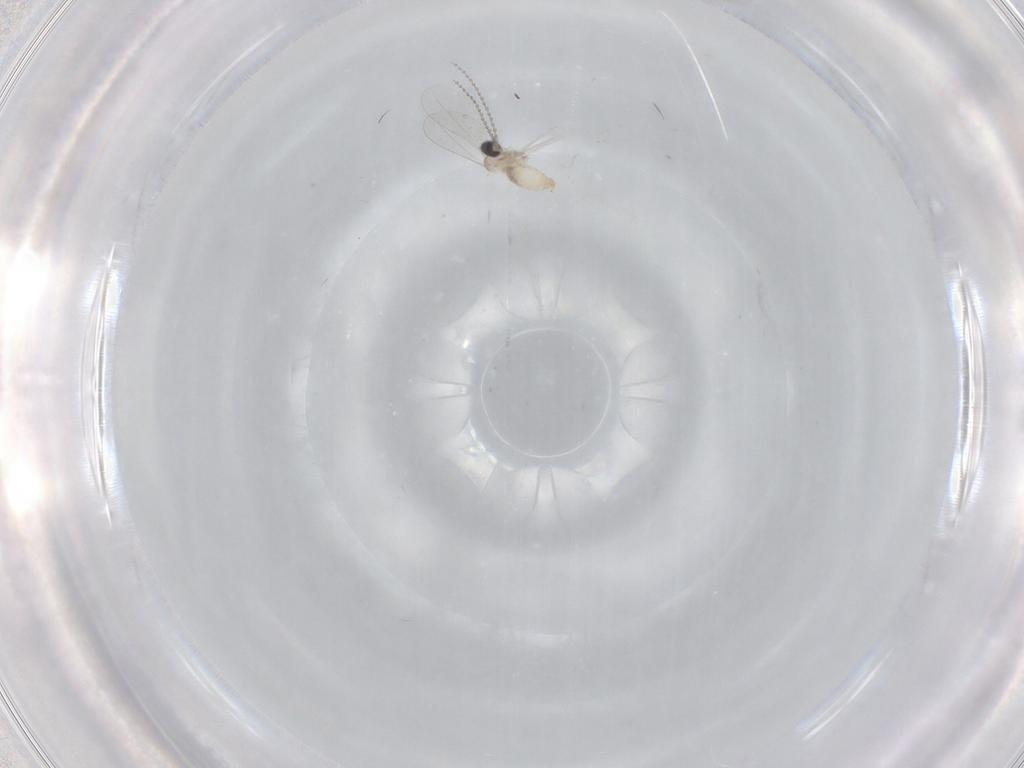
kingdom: Animalia
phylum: Arthropoda
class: Insecta
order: Diptera
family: Cecidomyiidae
